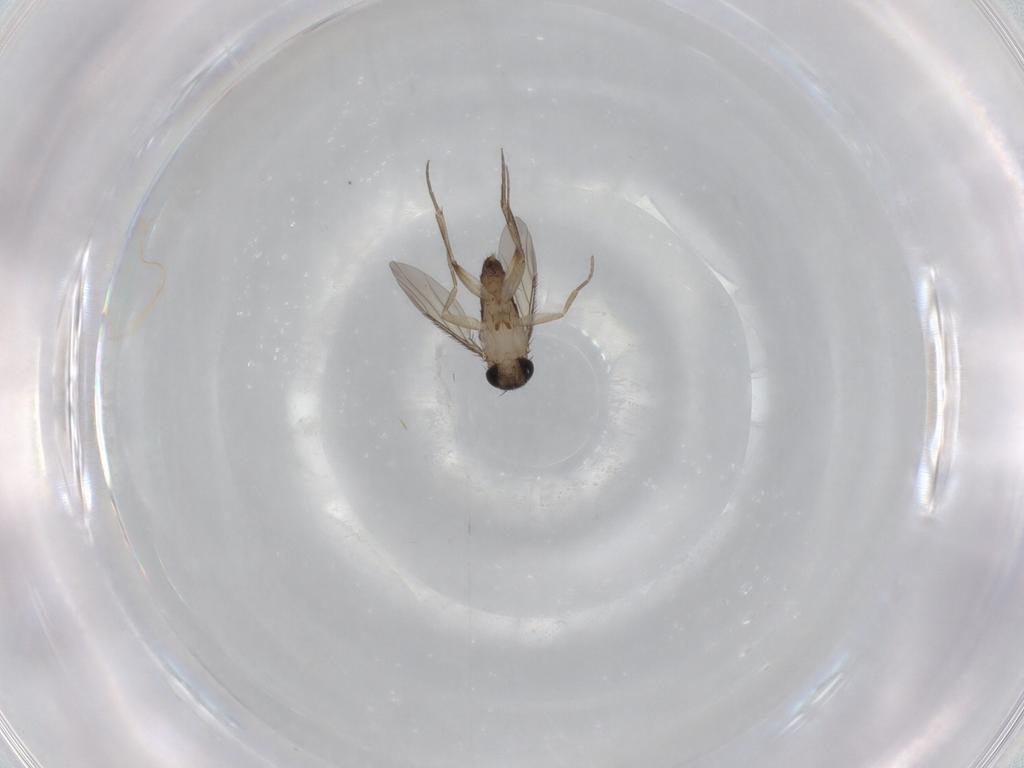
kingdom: Animalia
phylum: Arthropoda
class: Insecta
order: Diptera
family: Phoridae
